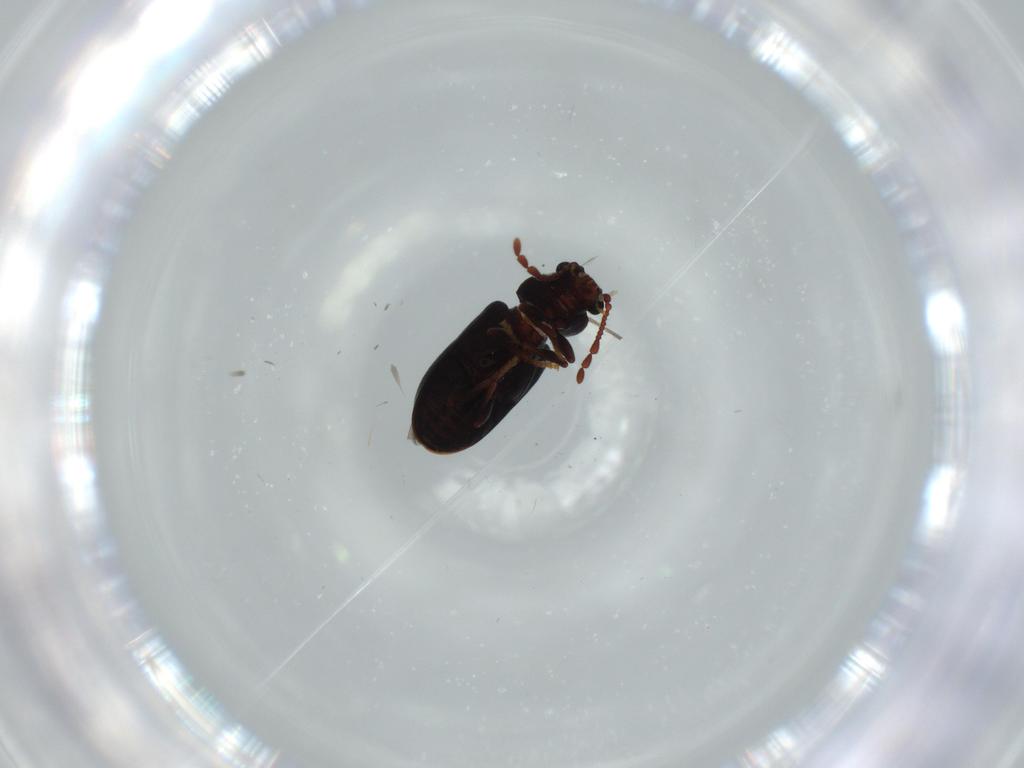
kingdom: Animalia
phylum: Arthropoda
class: Insecta
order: Coleoptera
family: Ptinidae
